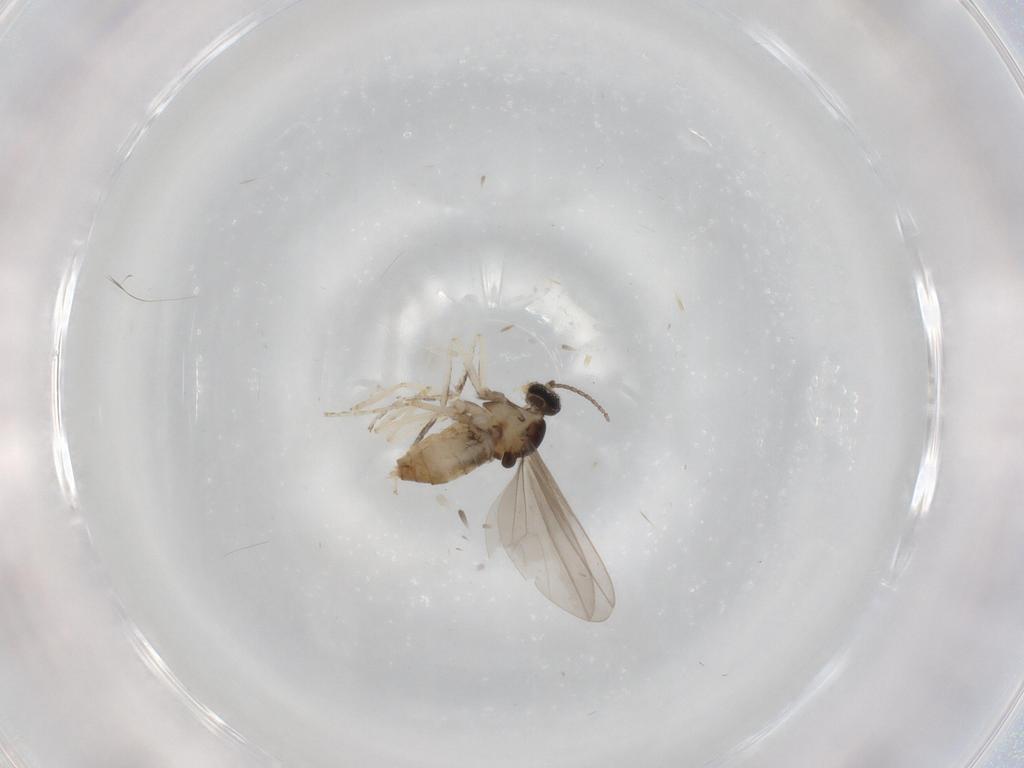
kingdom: Animalia
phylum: Arthropoda
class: Insecta
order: Diptera
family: Cecidomyiidae
